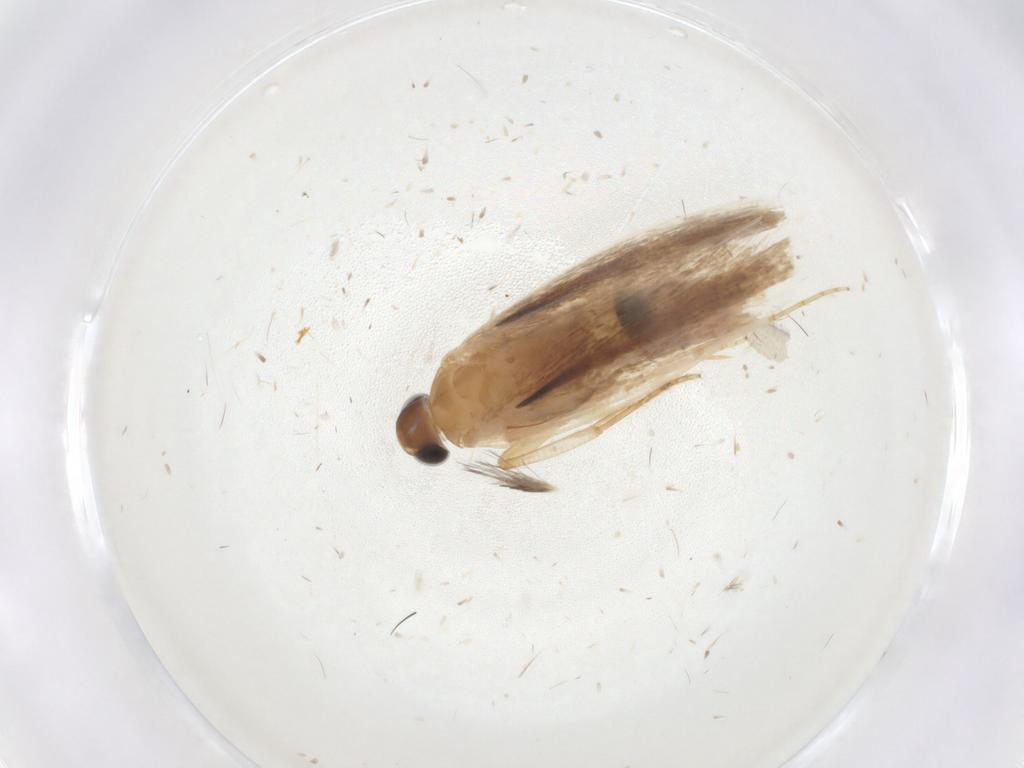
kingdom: Animalia
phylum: Arthropoda
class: Insecta
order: Lepidoptera
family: Gelechiidae
